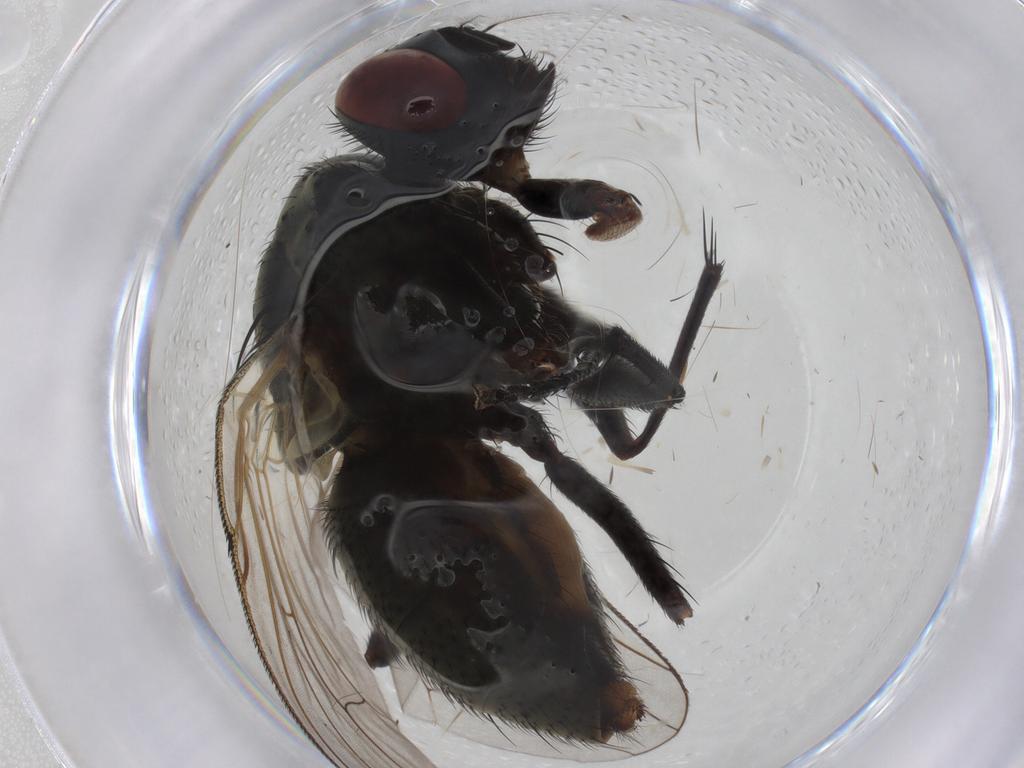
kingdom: Animalia
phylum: Arthropoda
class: Insecta
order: Diptera
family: Muscidae
